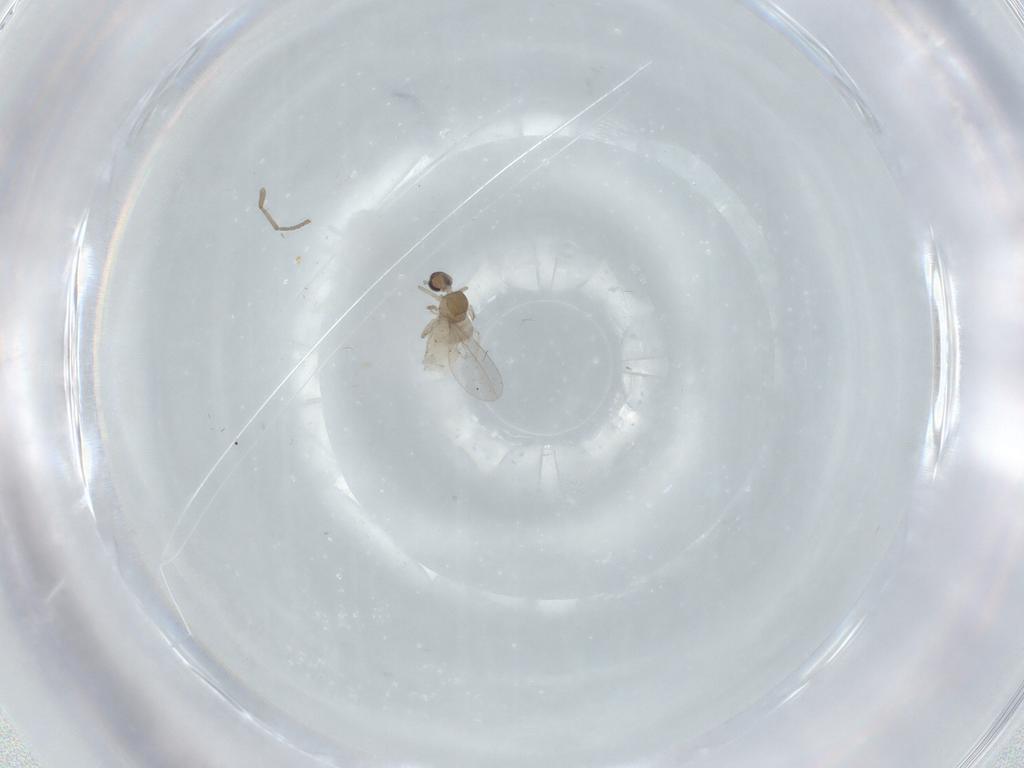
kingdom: Animalia
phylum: Arthropoda
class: Insecta
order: Diptera
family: Cecidomyiidae
